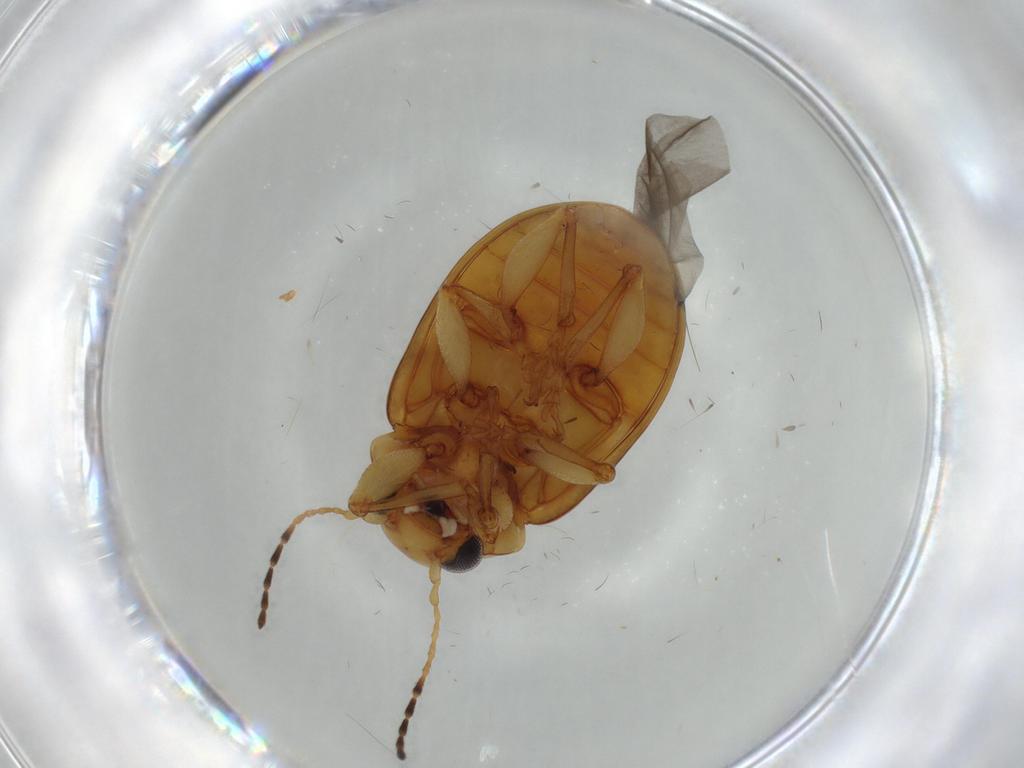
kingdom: Animalia
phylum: Arthropoda
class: Insecta
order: Coleoptera
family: Chrysomelidae
